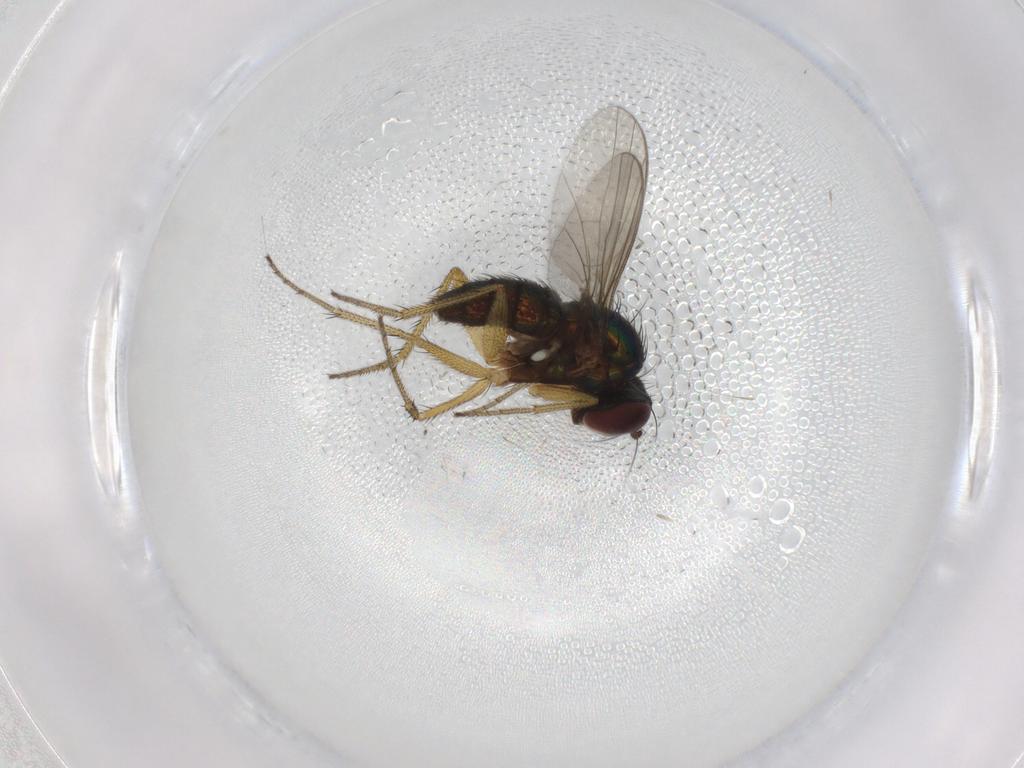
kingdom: Animalia
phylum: Arthropoda
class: Insecta
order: Diptera
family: Dolichopodidae
